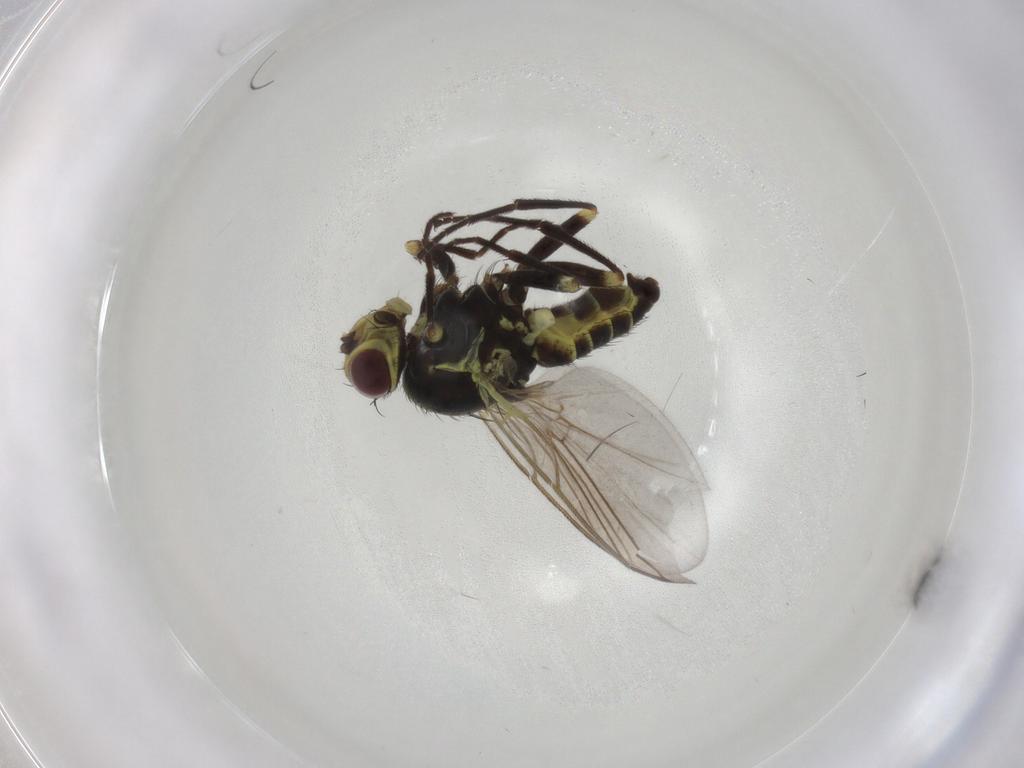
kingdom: Animalia
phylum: Arthropoda
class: Insecta
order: Diptera
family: Agromyzidae
